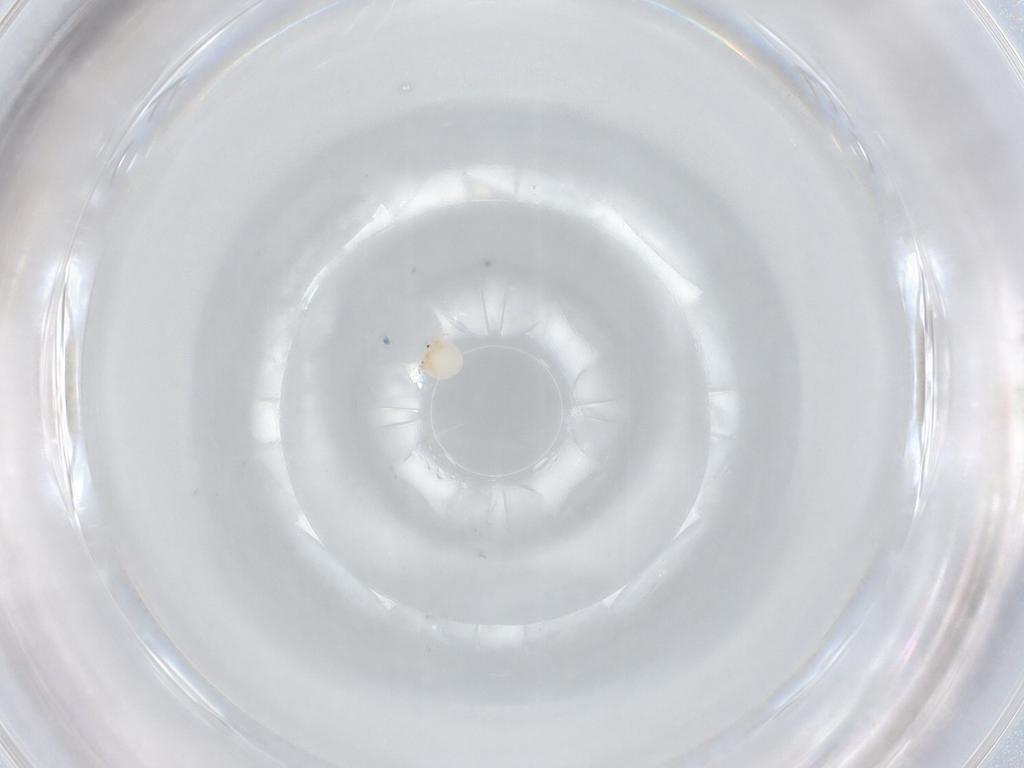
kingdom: Animalia
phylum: Arthropoda
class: Arachnida
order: Trombidiformes
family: Arrenuridae
